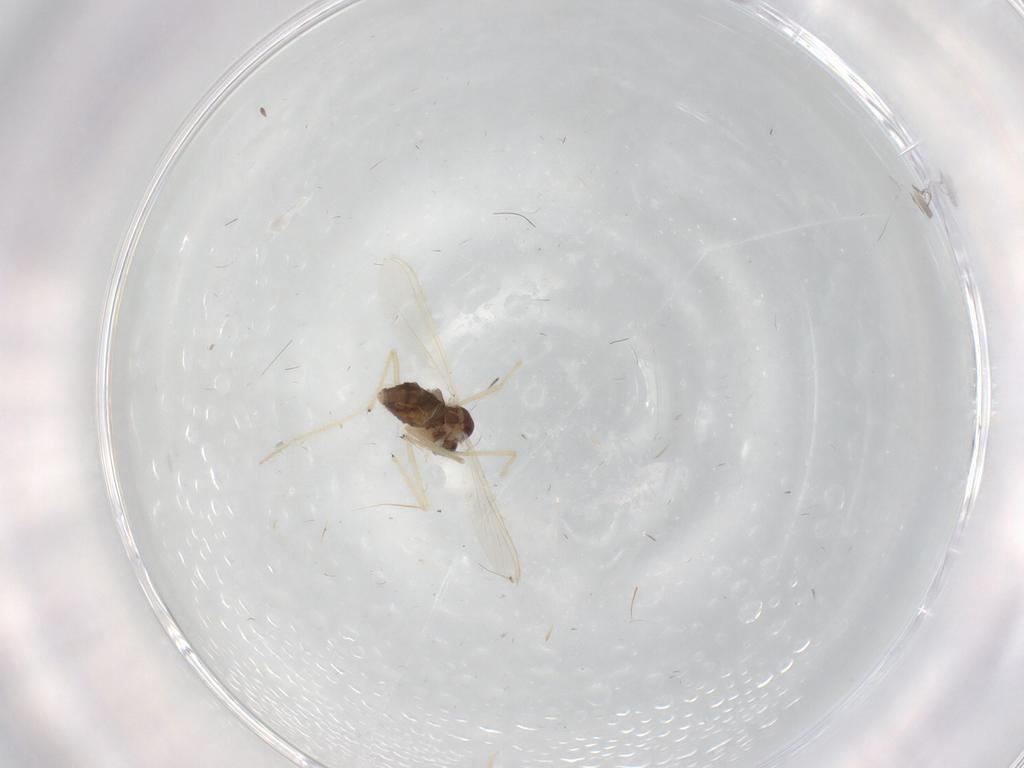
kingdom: Animalia
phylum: Arthropoda
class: Insecta
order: Diptera
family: Chironomidae
